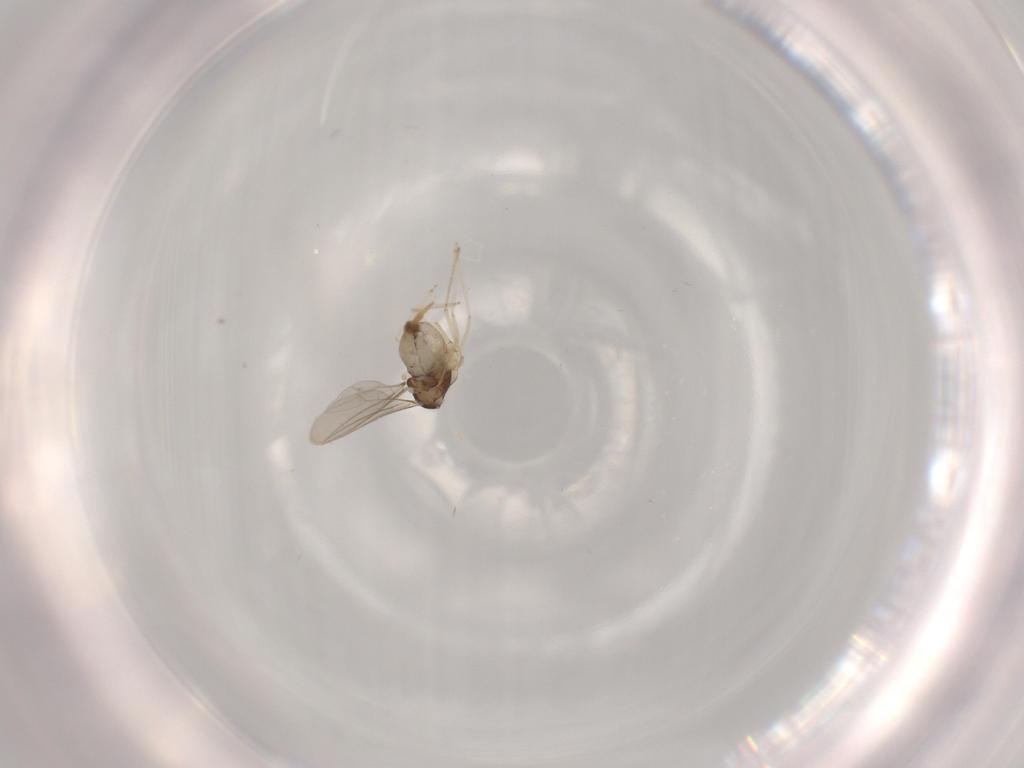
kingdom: Animalia
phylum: Arthropoda
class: Insecta
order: Diptera
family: Cecidomyiidae
